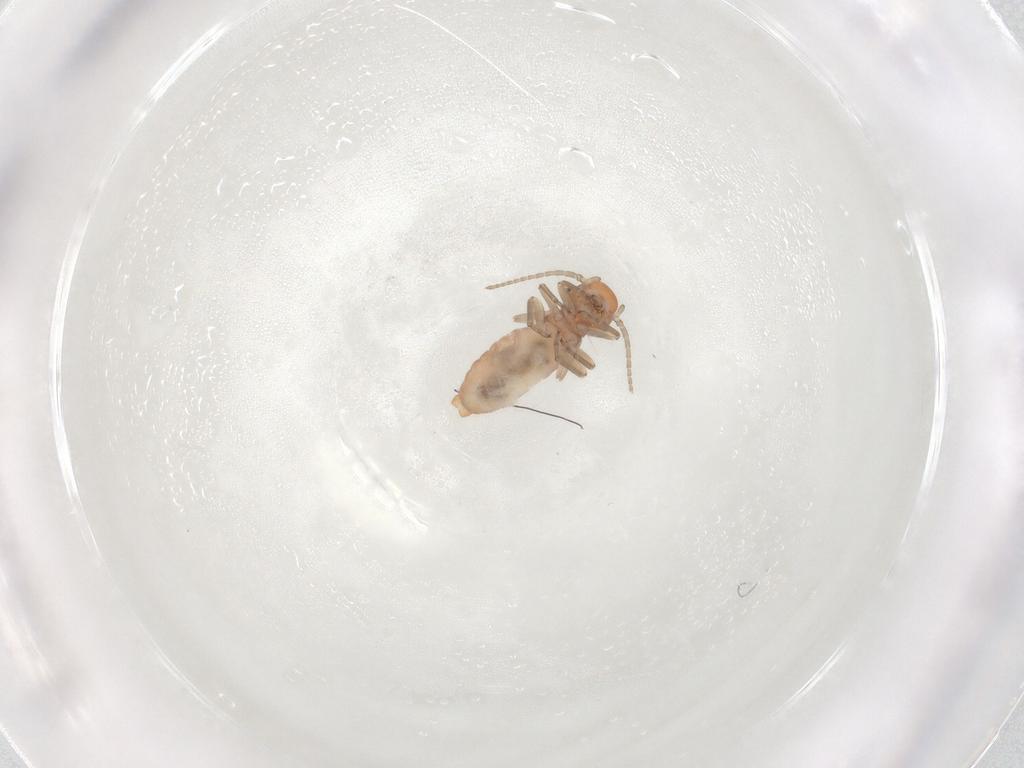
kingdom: Animalia
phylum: Arthropoda
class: Insecta
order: Psocodea
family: Caeciliusidae
